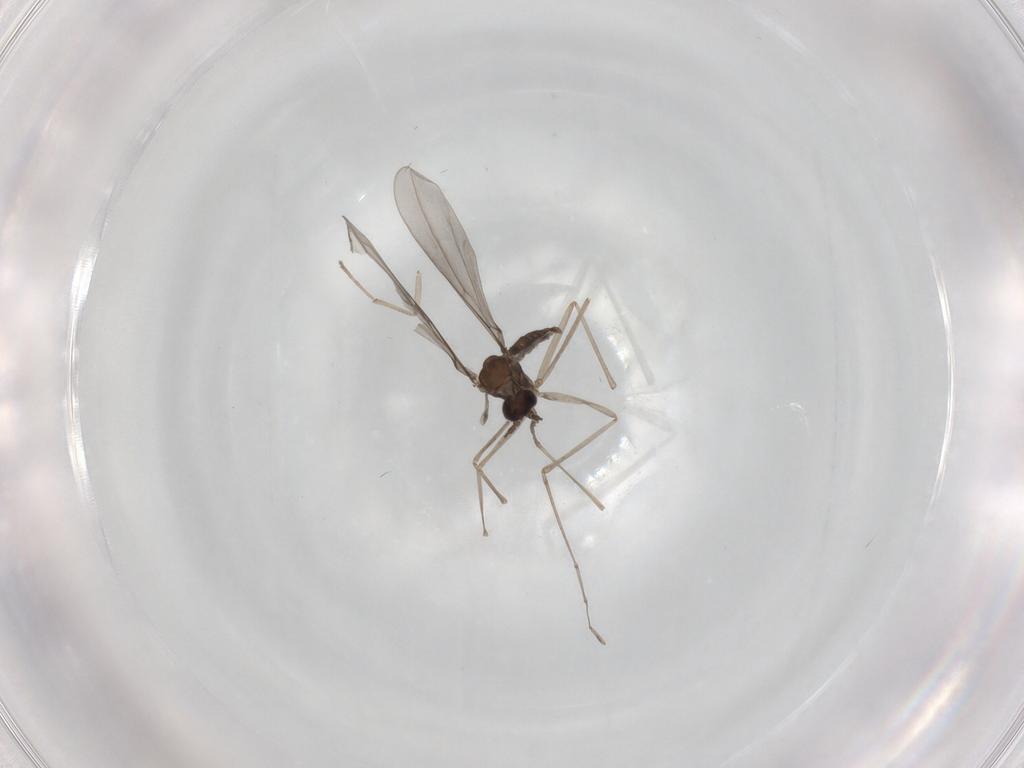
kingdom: Animalia
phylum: Arthropoda
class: Insecta
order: Diptera
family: Cecidomyiidae
